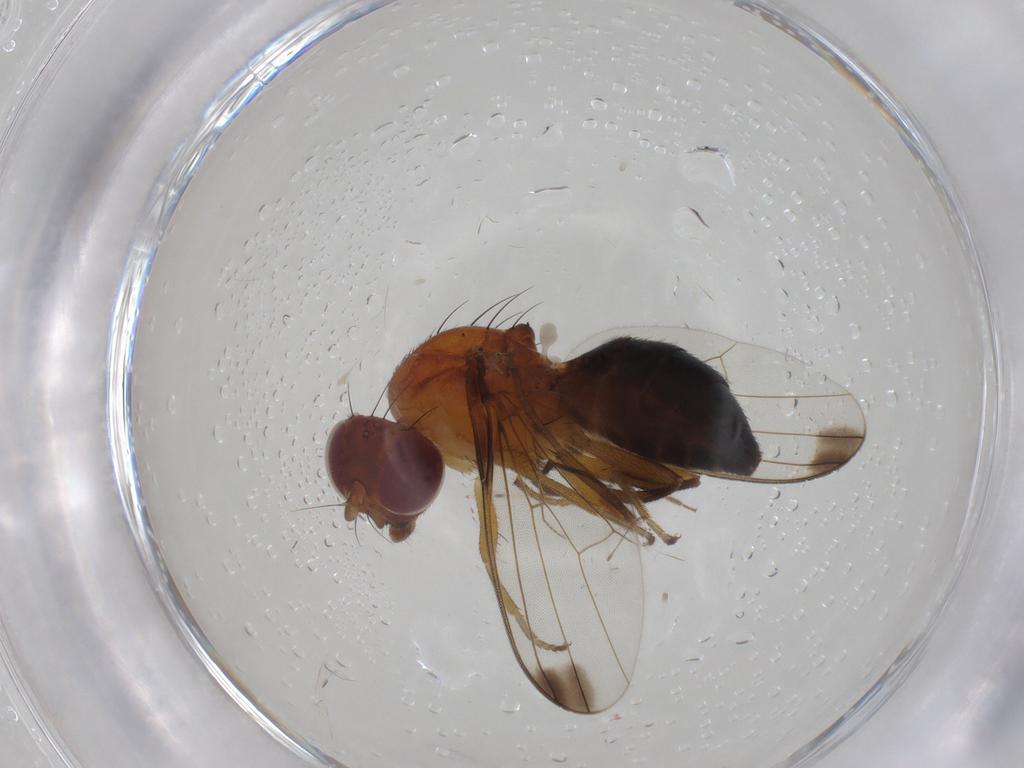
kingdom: Animalia
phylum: Arthropoda
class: Insecta
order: Diptera
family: Piophilidae
